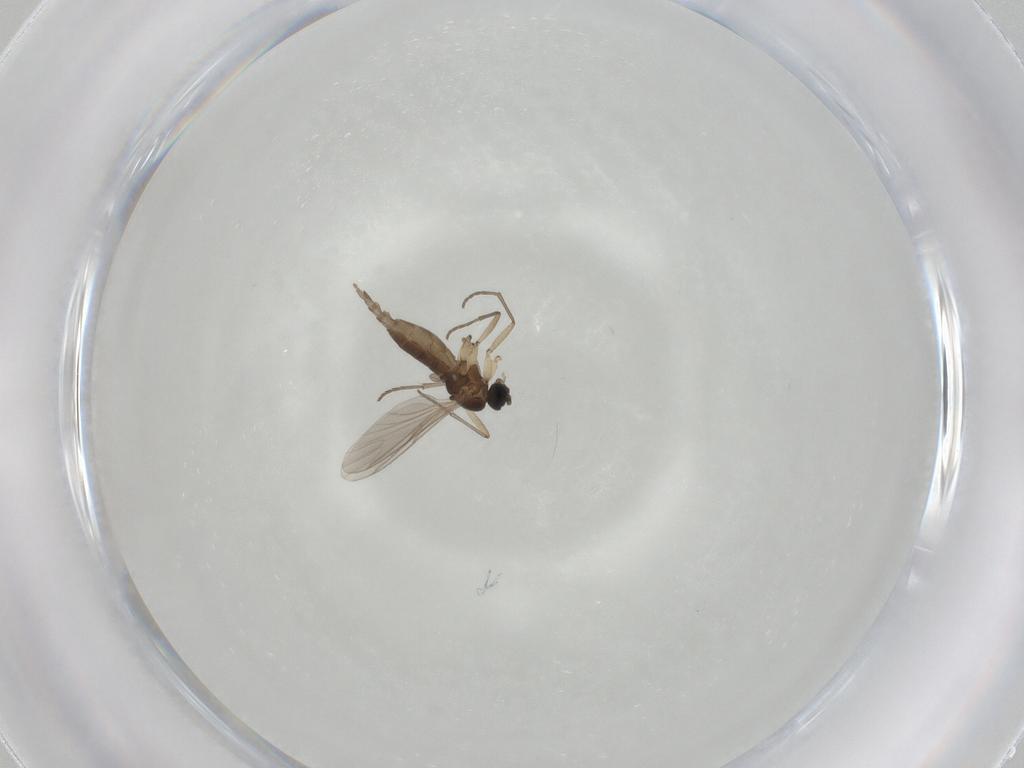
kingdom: Animalia
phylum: Arthropoda
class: Insecta
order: Diptera
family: Sciaridae
